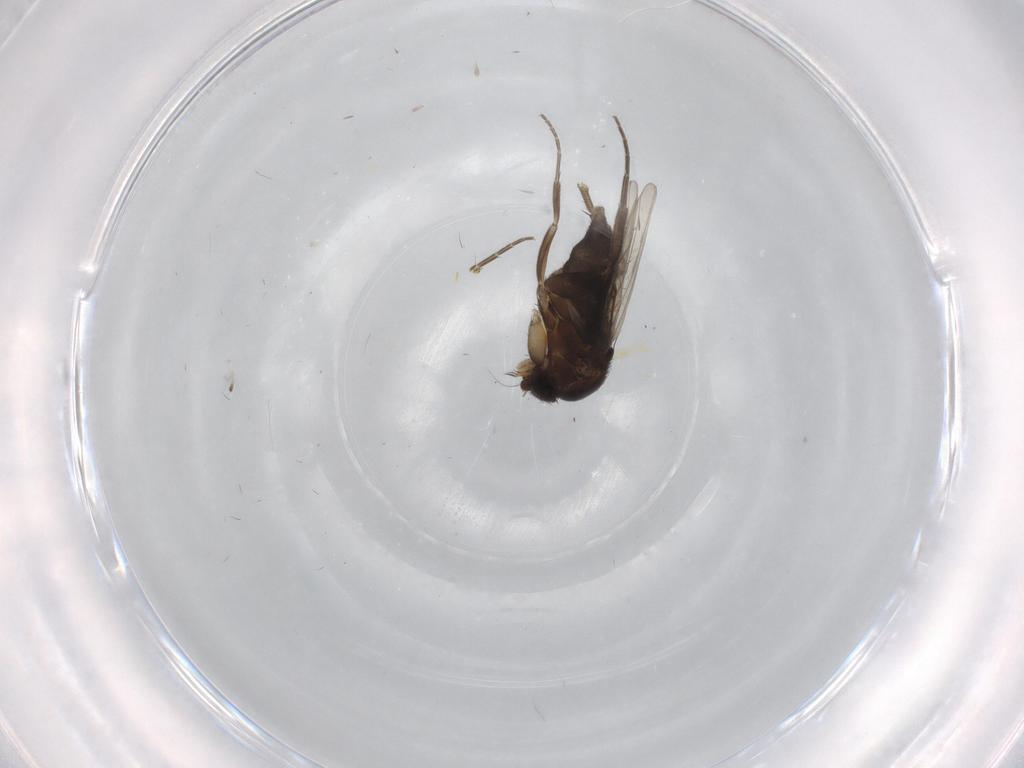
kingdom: Animalia
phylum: Arthropoda
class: Insecta
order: Diptera
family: Phoridae
